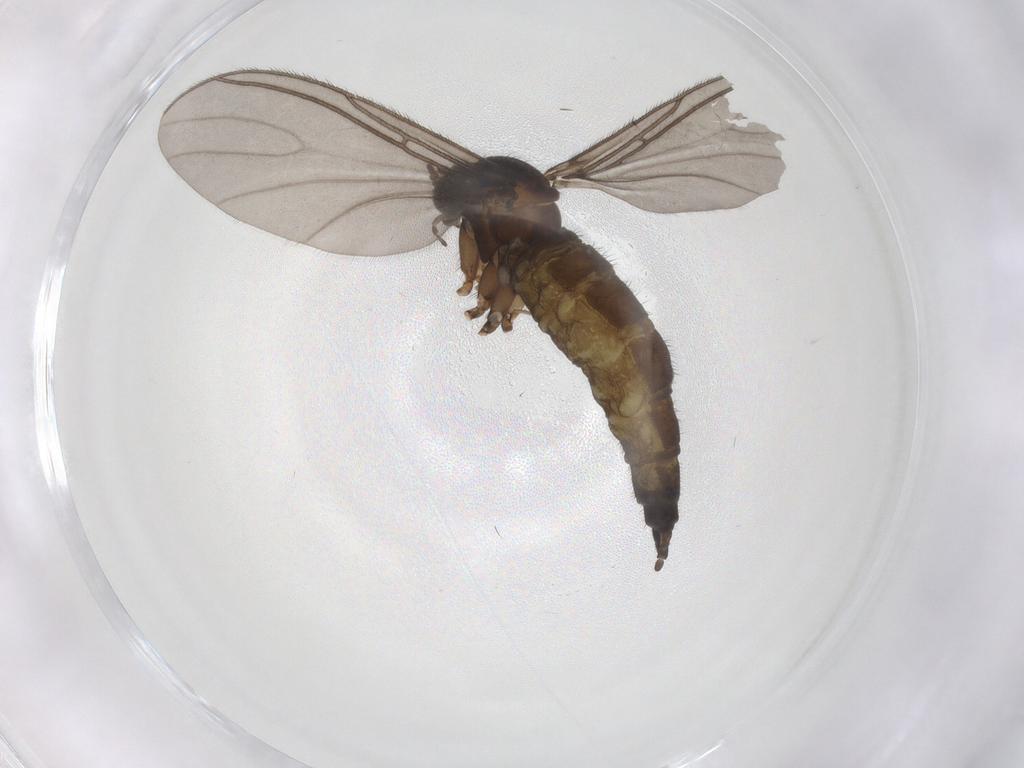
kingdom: Animalia
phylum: Arthropoda
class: Insecta
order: Diptera
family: Sciaridae
